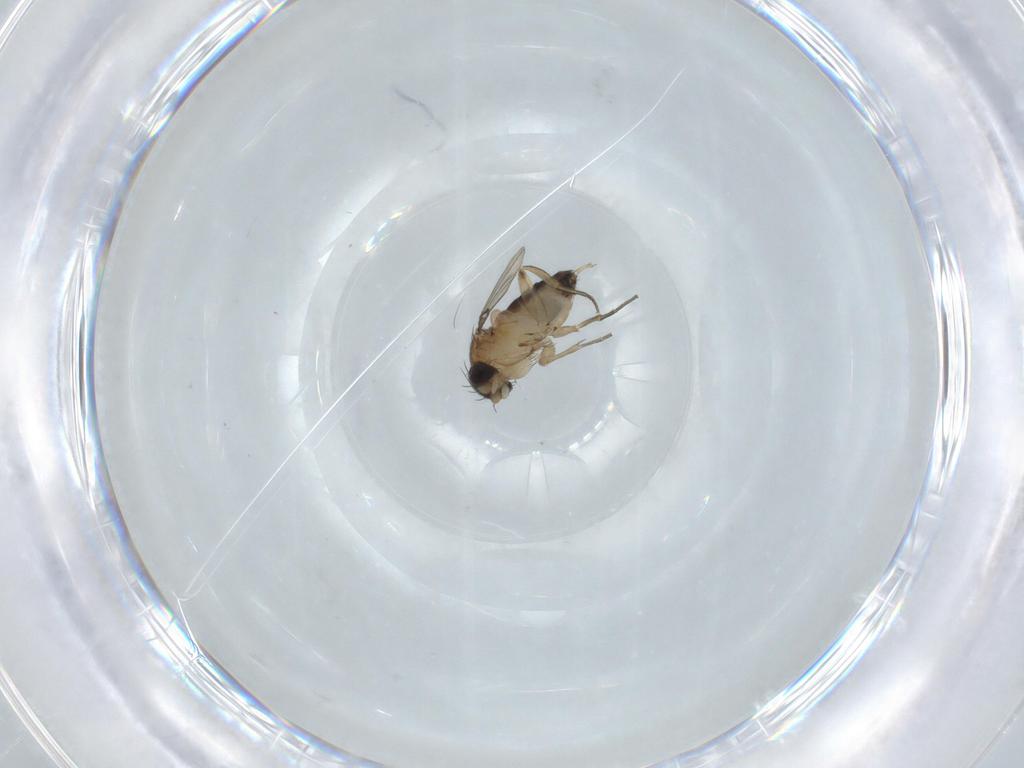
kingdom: Animalia
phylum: Arthropoda
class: Insecta
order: Diptera
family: Phoridae
